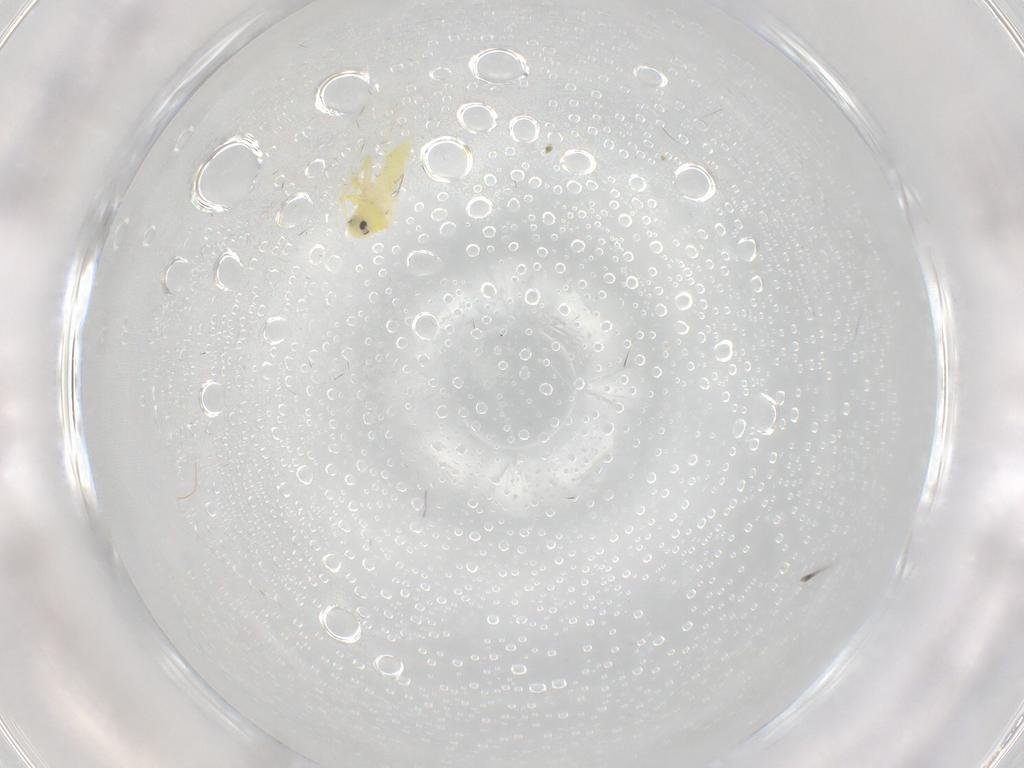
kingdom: Animalia
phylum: Arthropoda
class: Insecta
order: Hemiptera
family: Aleyrodidae
